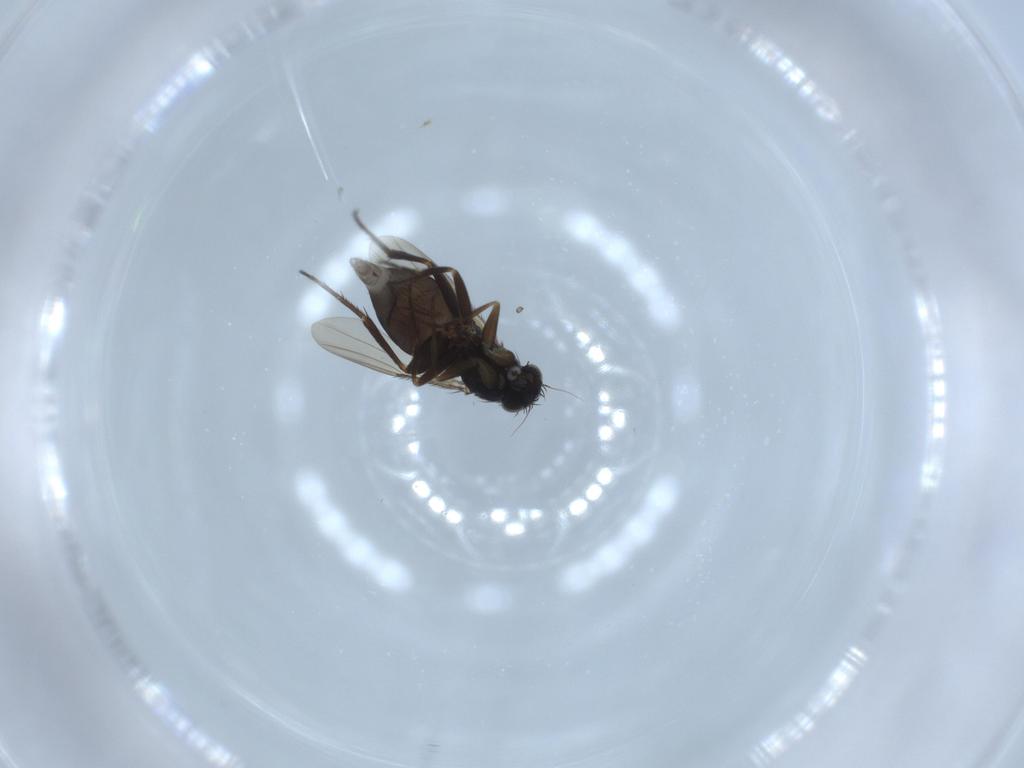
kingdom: Animalia
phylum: Arthropoda
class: Insecta
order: Diptera
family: Phoridae
